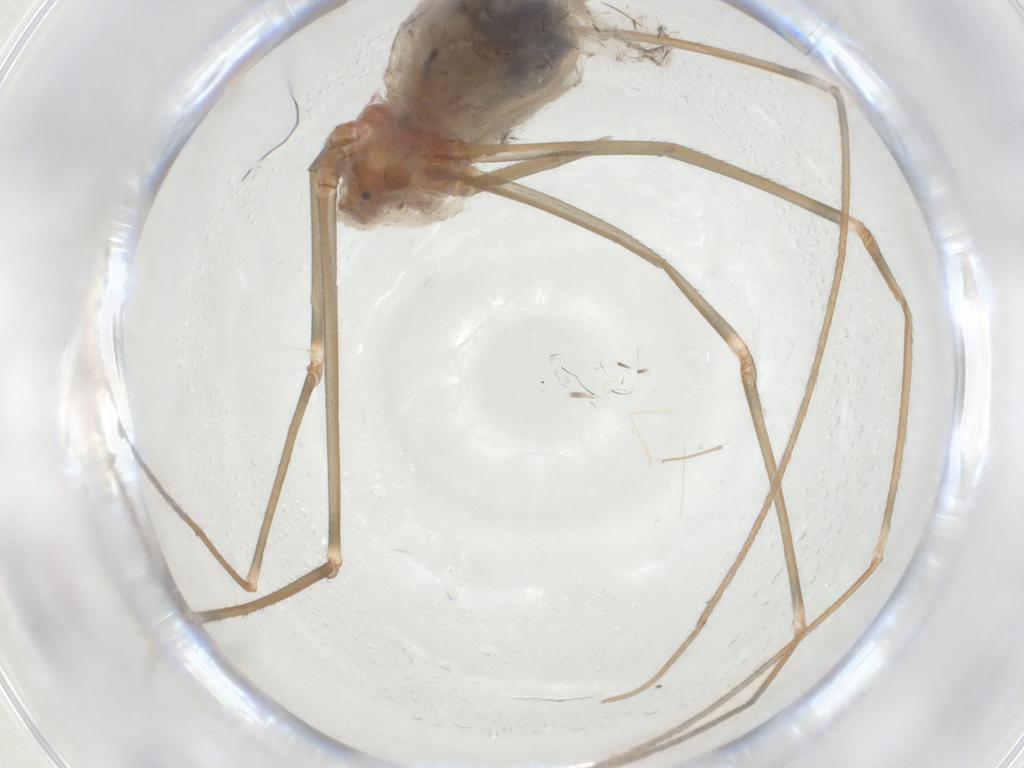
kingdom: Animalia
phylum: Arthropoda
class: Arachnida
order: Araneae
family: Pholcidae
